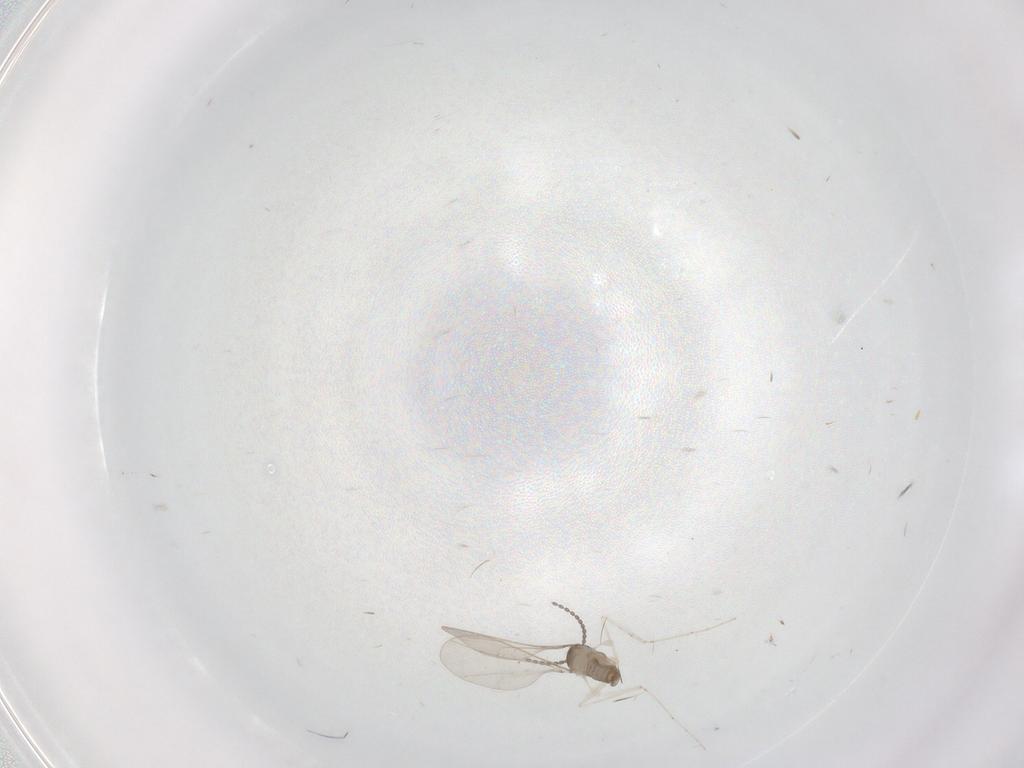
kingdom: Animalia
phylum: Arthropoda
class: Insecta
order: Diptera
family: Cecidomyiidae
